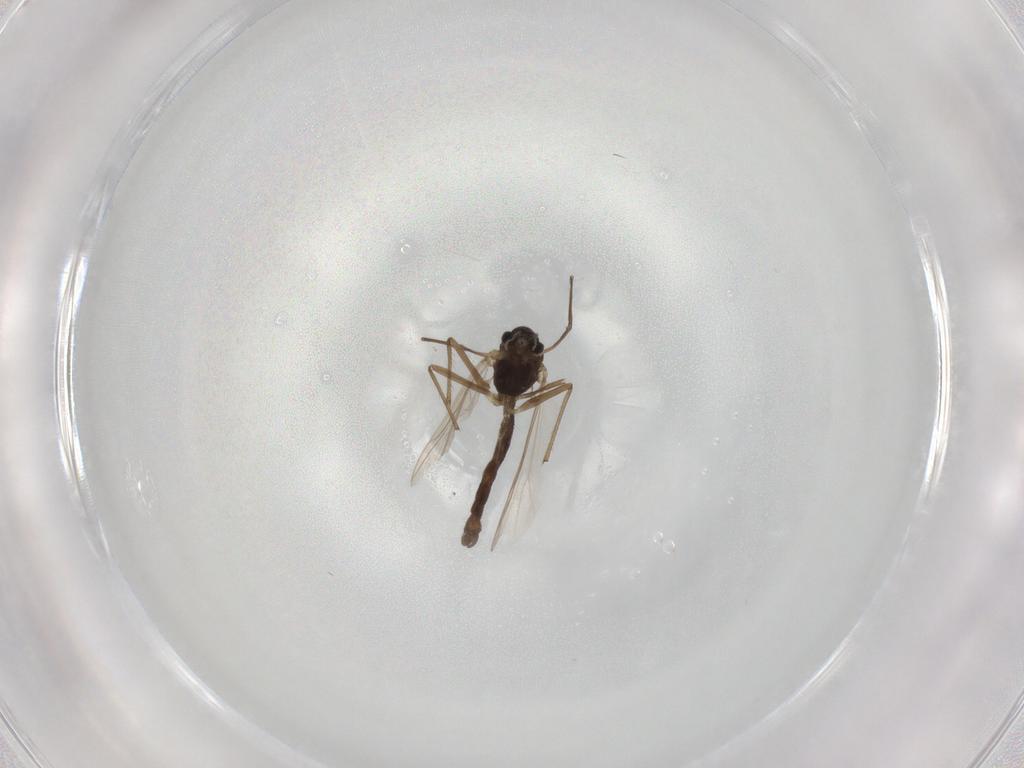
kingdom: Animalia
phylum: Arthropoda
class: Insecta
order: Diptera
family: Chironomidae
